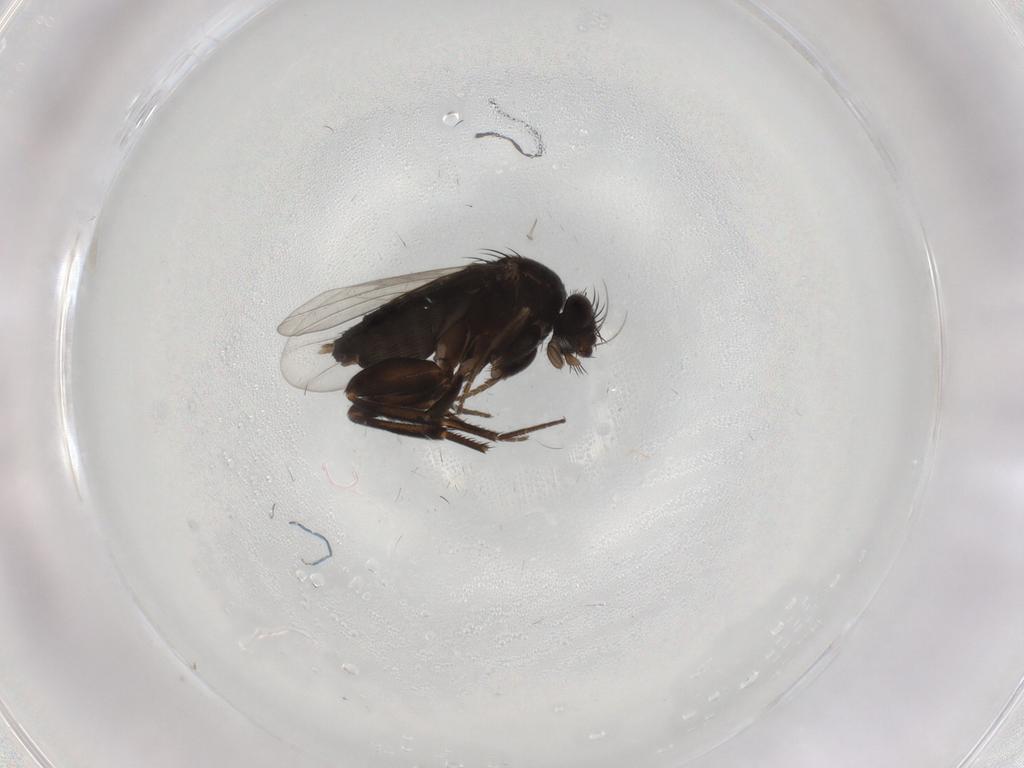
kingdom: Animalia
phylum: Arthropoda
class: Insecta
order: Diptera
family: Phoridae
